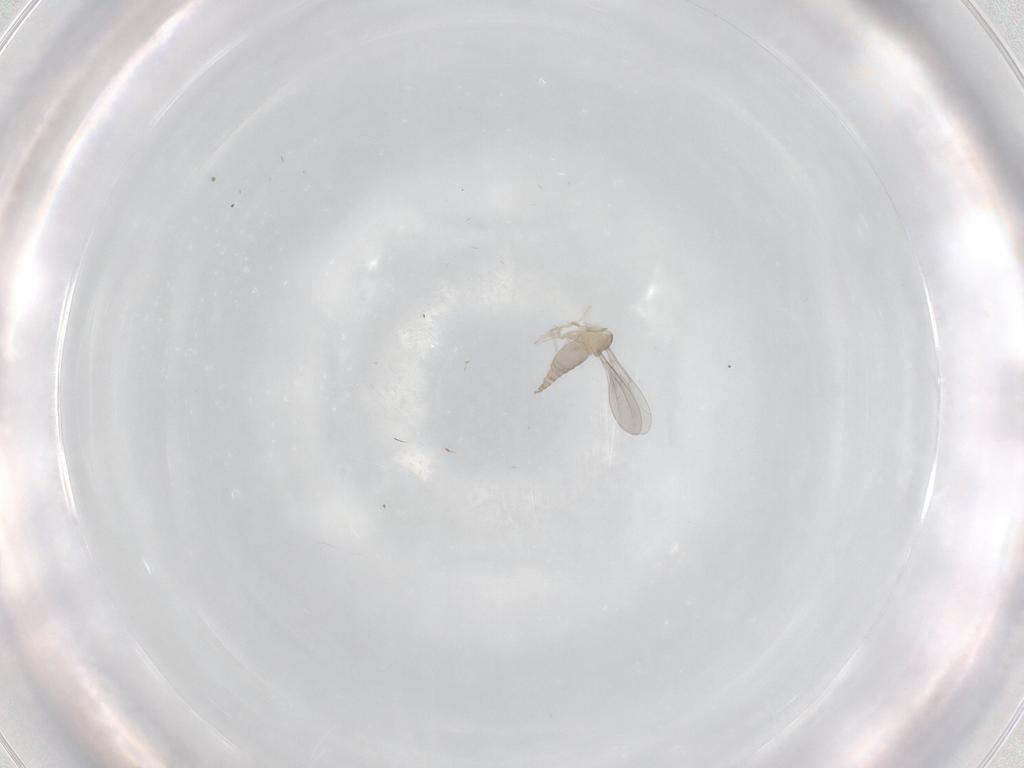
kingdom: Animalia
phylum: Arthropoda
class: Insecta
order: Diptera
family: Cecidomyiidae
